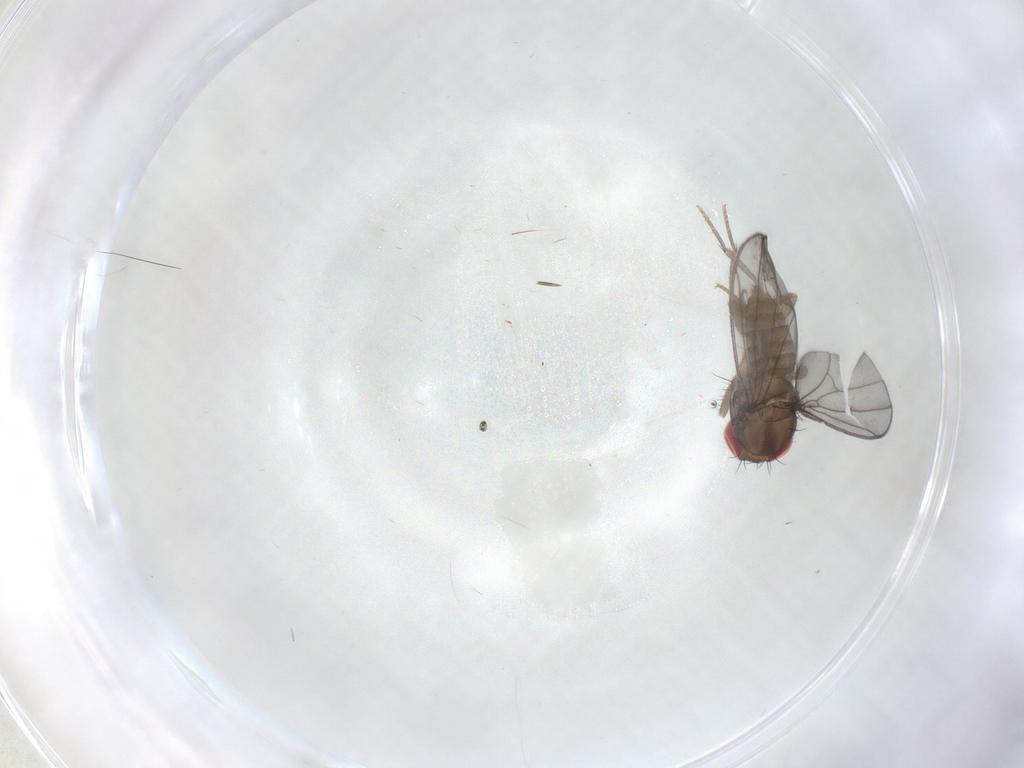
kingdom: Animalia
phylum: Arthropoda
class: Insecta
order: Diptera
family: Drosophilidae
